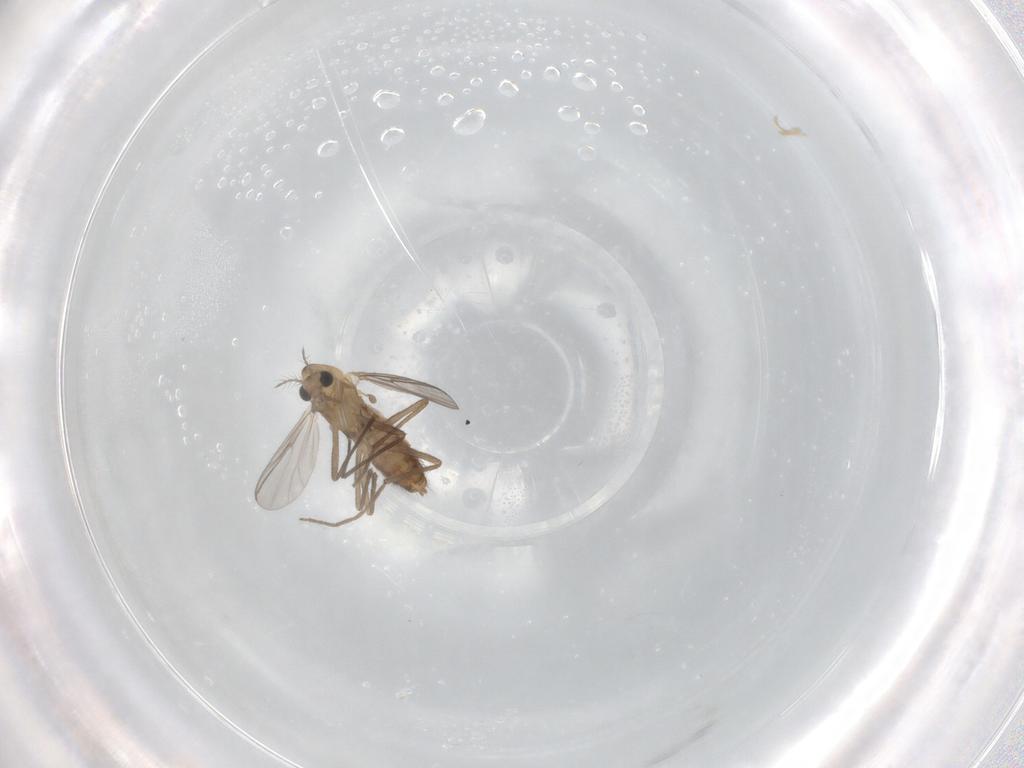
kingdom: Animalia
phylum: Arthropoda
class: Insecta
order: Diptera
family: Chironomidae
